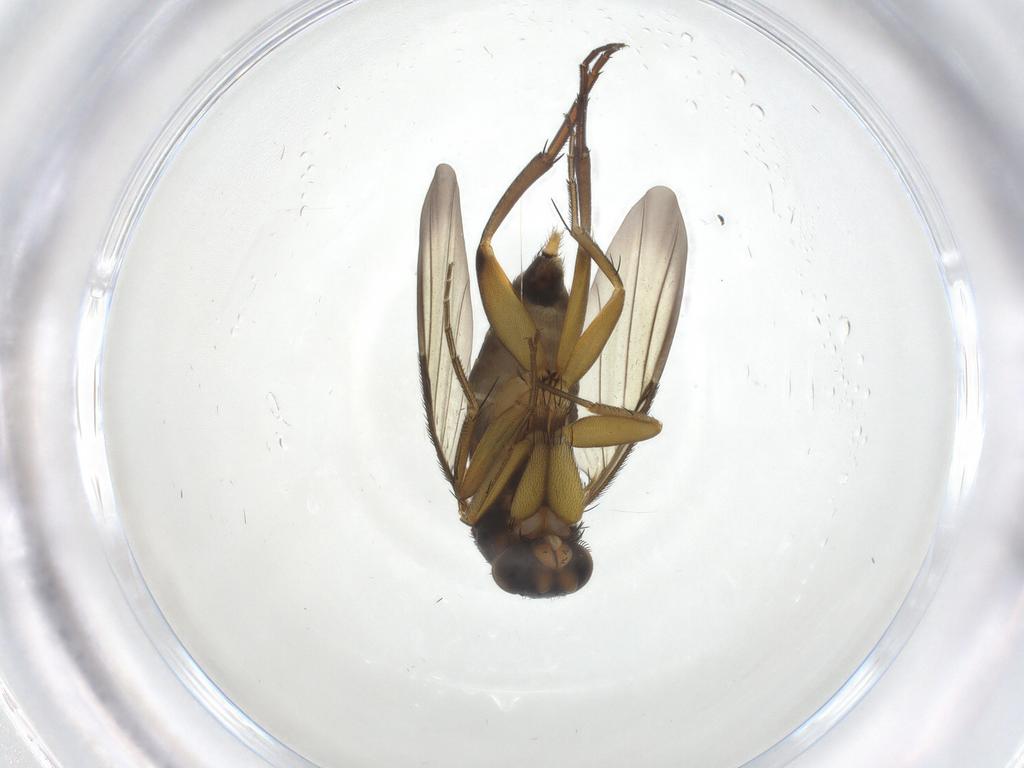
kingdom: Animalia
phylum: Arthropoda
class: Insecta
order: Diptera
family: Phoridae
